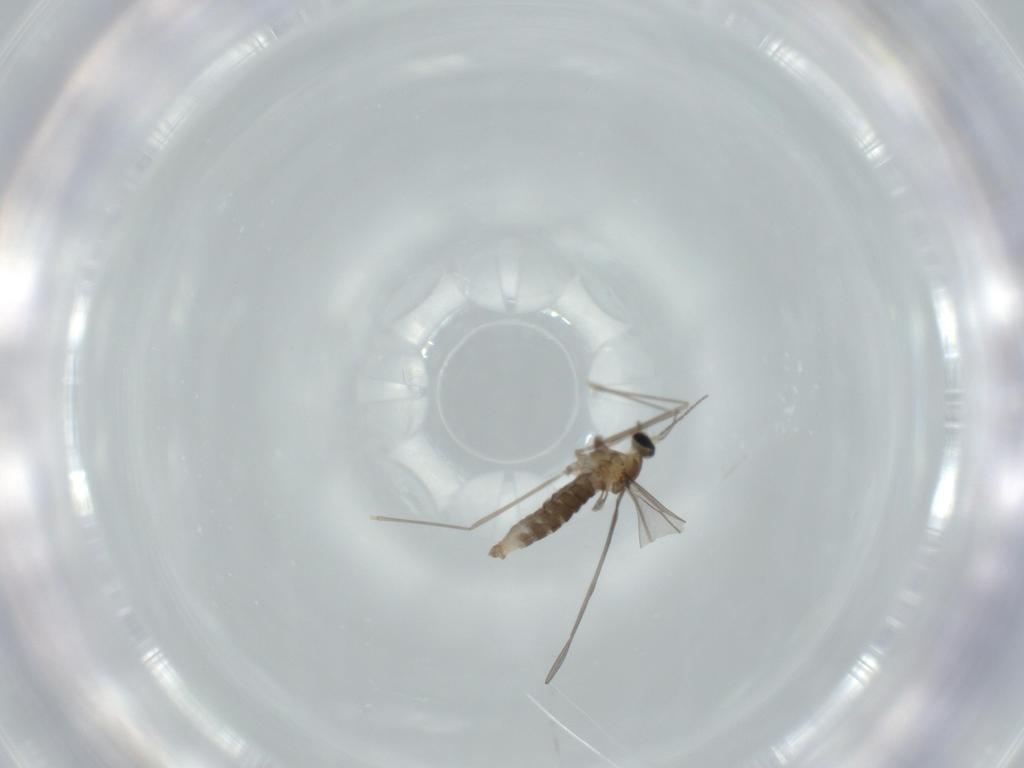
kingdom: Animalia
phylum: Arthropoda
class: Insecta
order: Diptera
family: Cecidomyiidae
